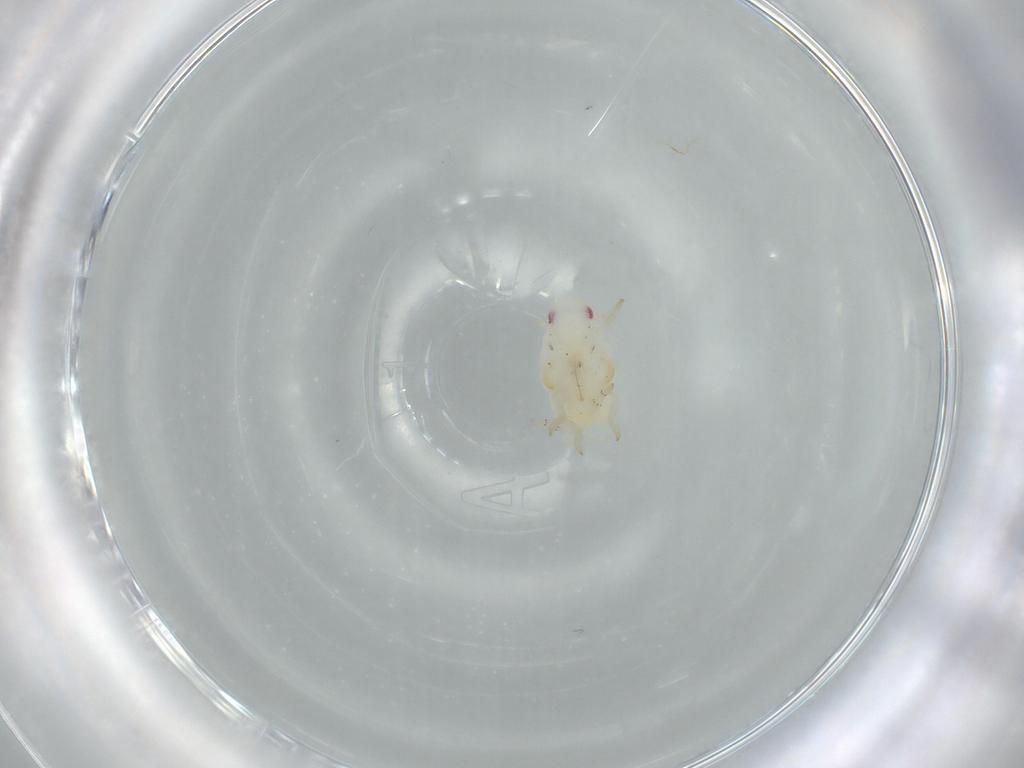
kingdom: Animalia
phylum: Arthropoda
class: Insecta
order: Hemiptera
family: Flatidae
